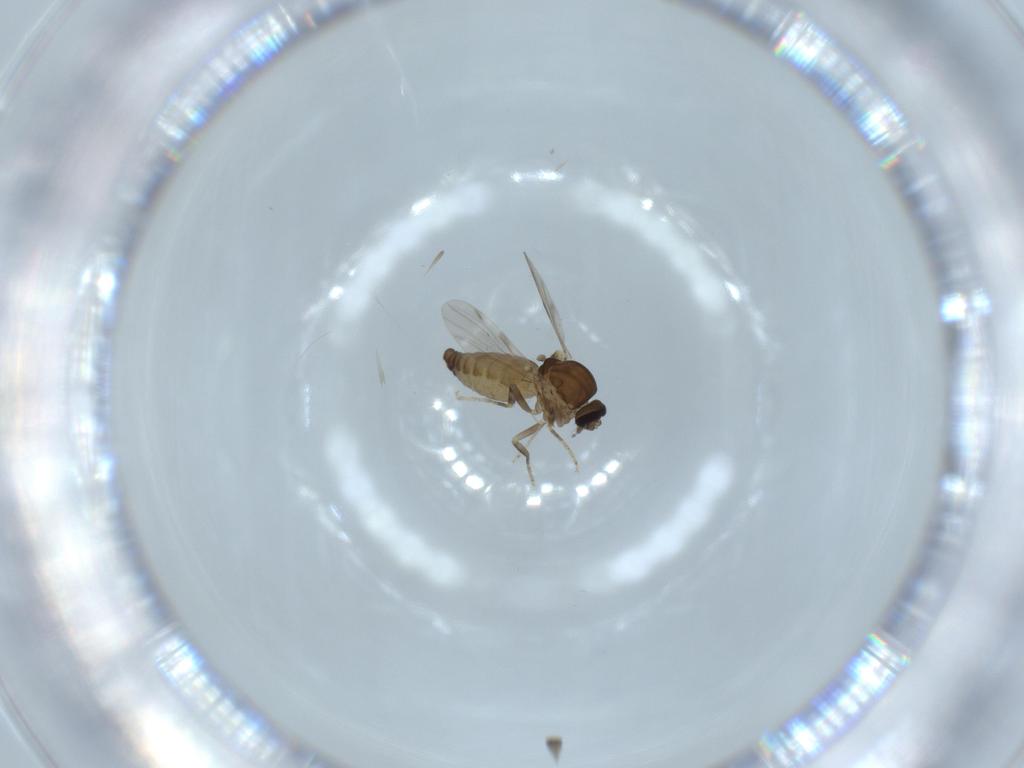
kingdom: Animalia
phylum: Arthropoda
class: Insecta
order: Diptera
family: Ceratopogonidae
